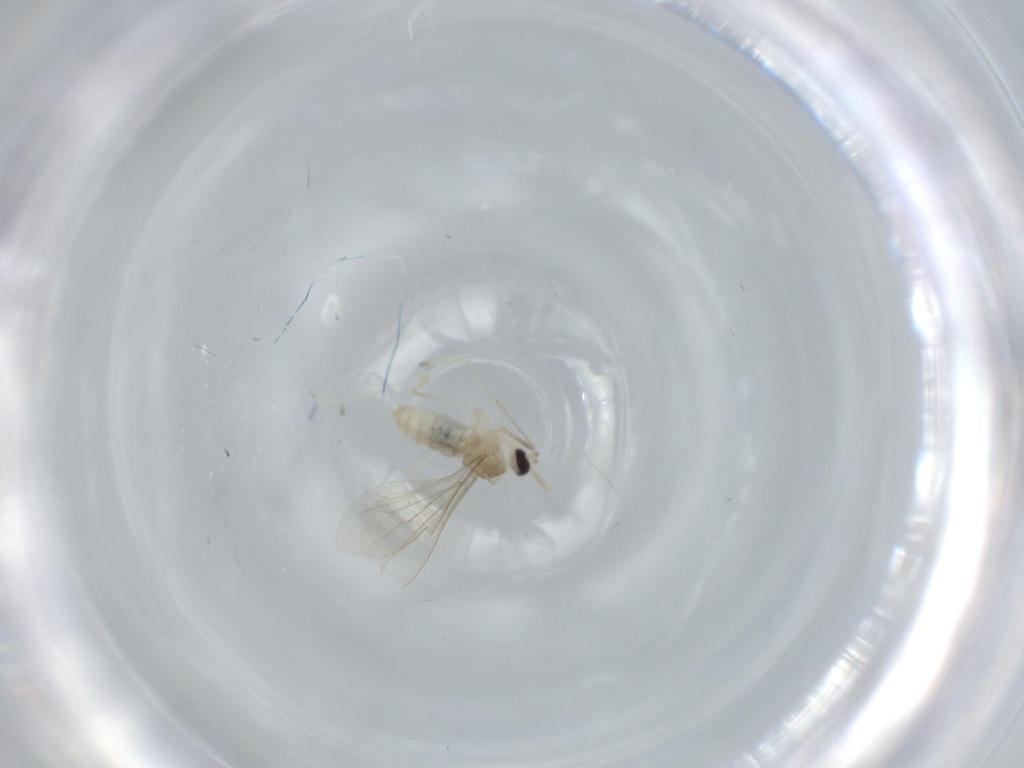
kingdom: Animalia
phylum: Arthropoda
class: Insecta
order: Diptera
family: Cecidomyiidae
